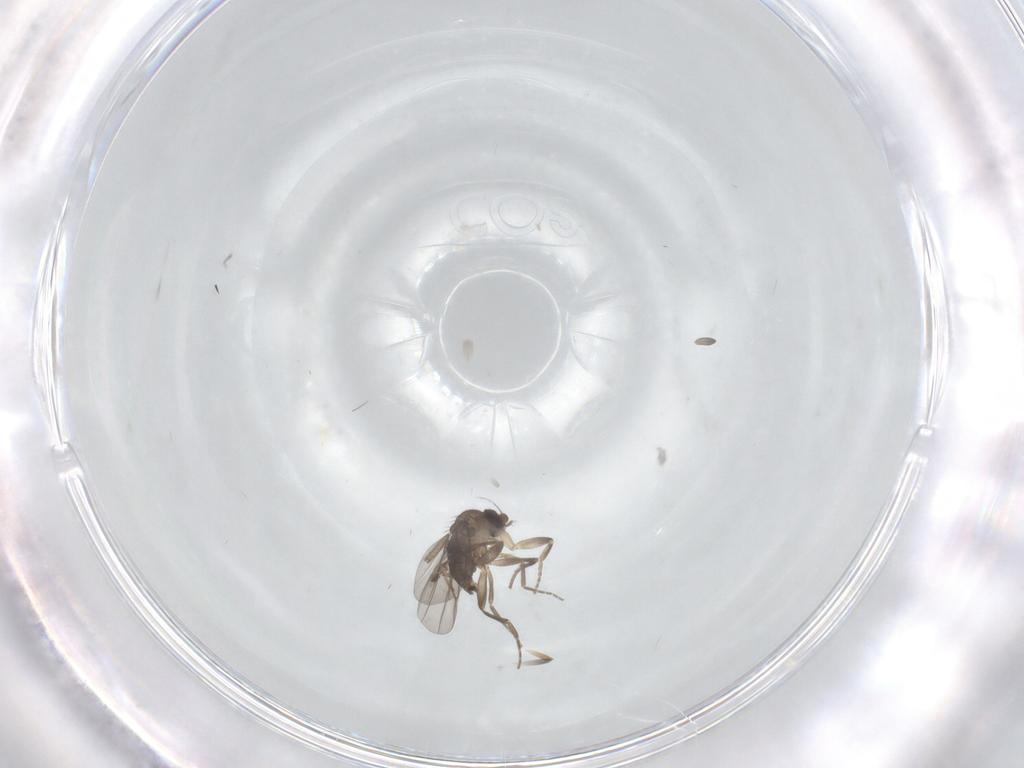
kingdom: Animalia
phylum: Arthropoda
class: Insecta
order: Diptera
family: Phoridae
